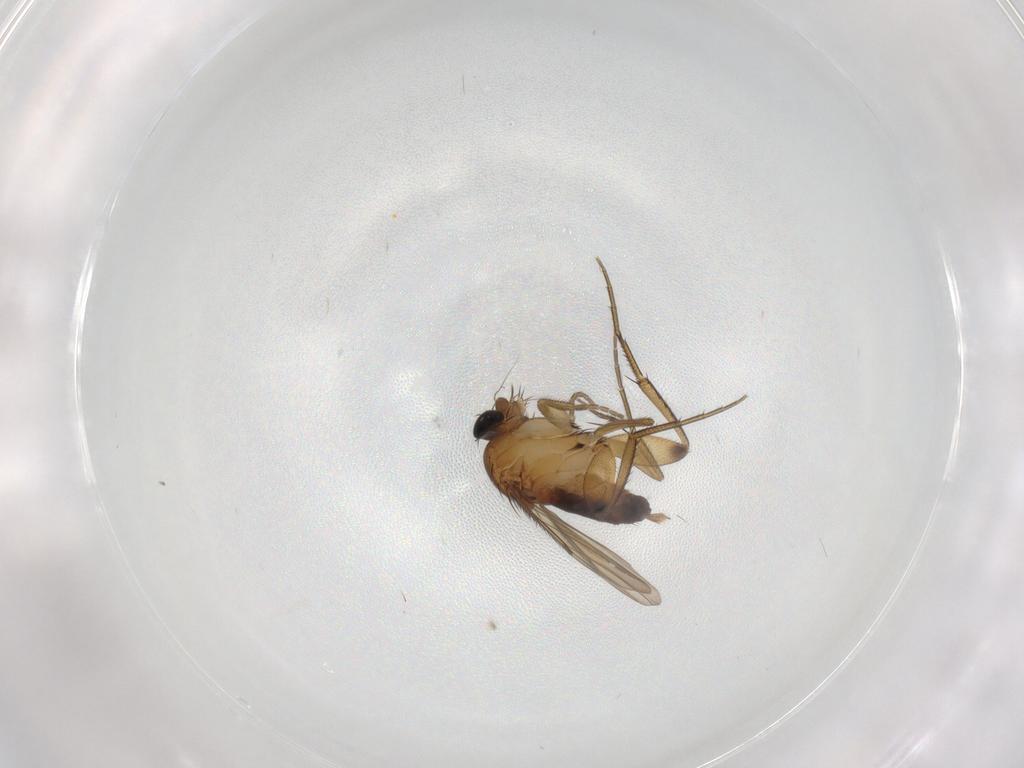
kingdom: Animalia
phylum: Arthropoda
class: Insecta
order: Diptera
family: Phoridae
